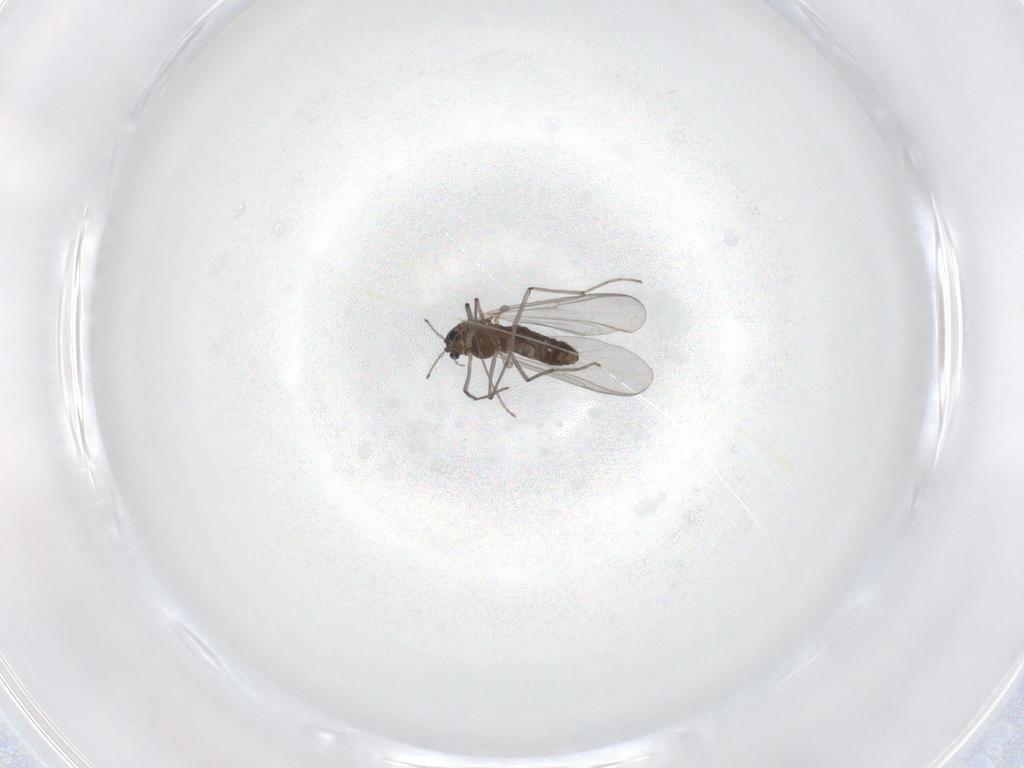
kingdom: Animalia
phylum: Arthropoda
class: Insecta
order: Diptera
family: Chironomidae
